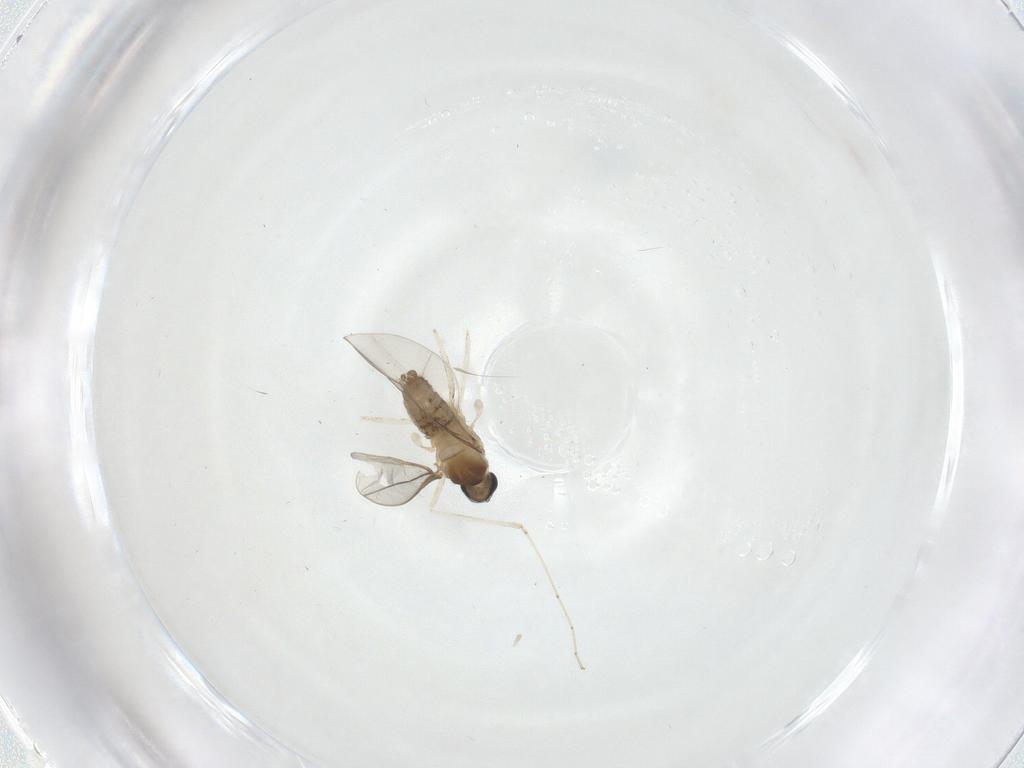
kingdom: Animalia
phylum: Arthropoda
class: Insecta
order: Diptera
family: Cecidomyiidae
